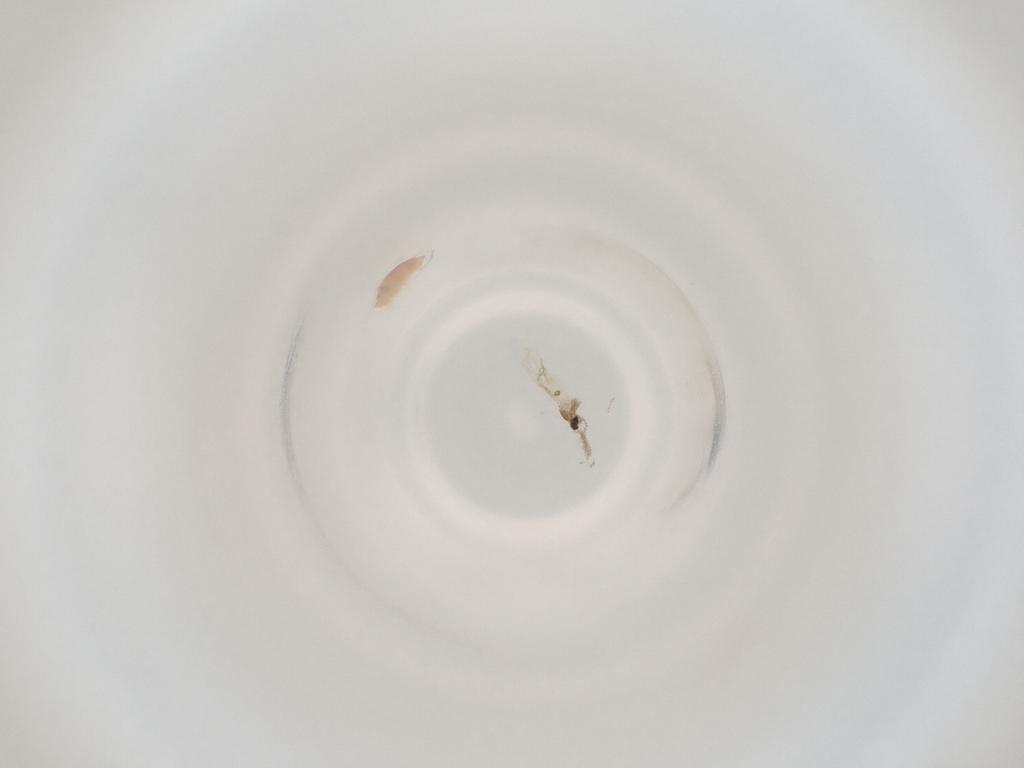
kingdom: Animalia
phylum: Arthropoda
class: Insecta
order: Diptera
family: Cecidomyiidae
